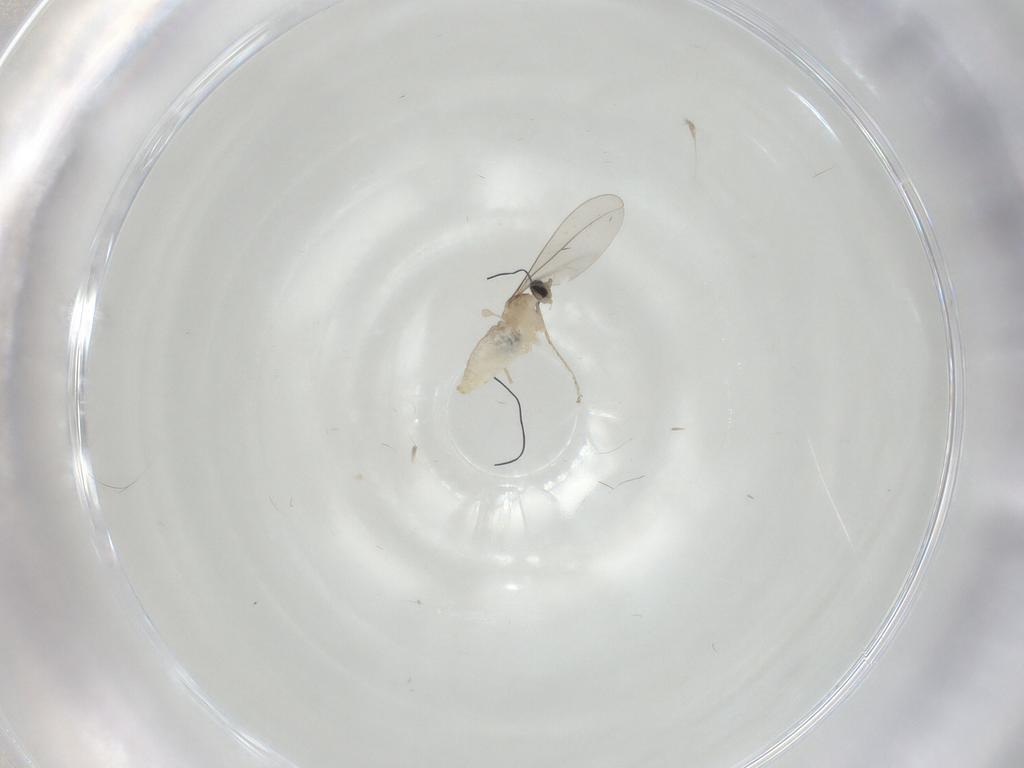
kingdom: Animalia
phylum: Arthropoda
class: Insecta
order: Diptera
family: Cecidomyiidae
